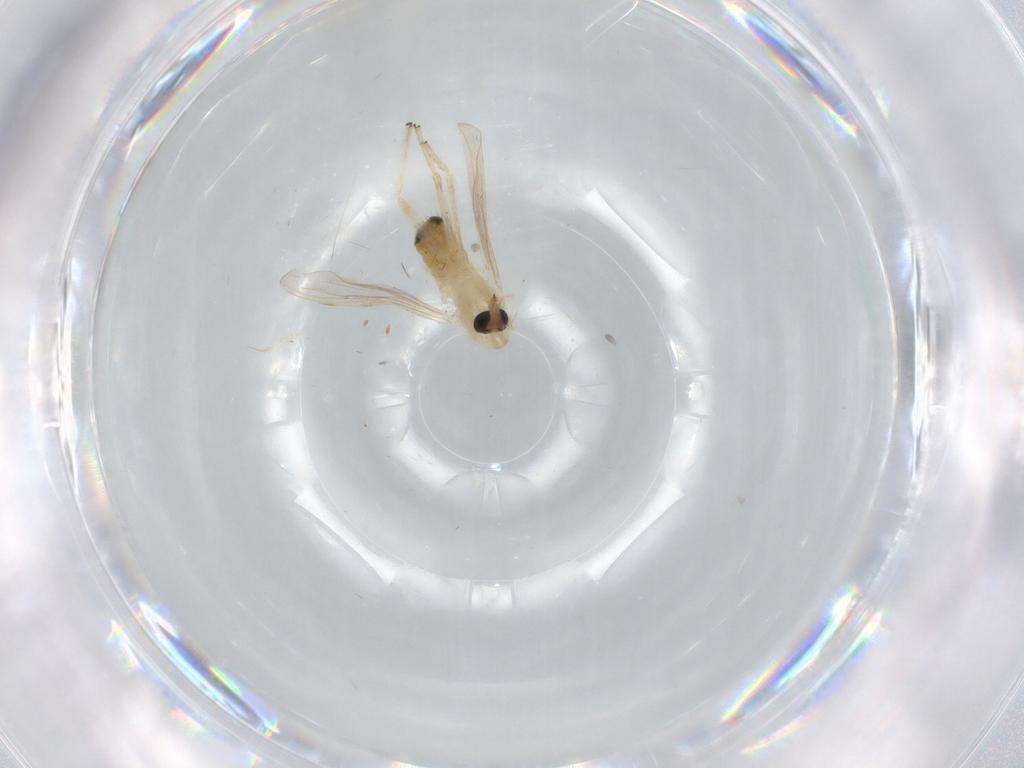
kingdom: Animalia
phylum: Arthropoda
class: Insecta
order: Diptera
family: Chironomidae
